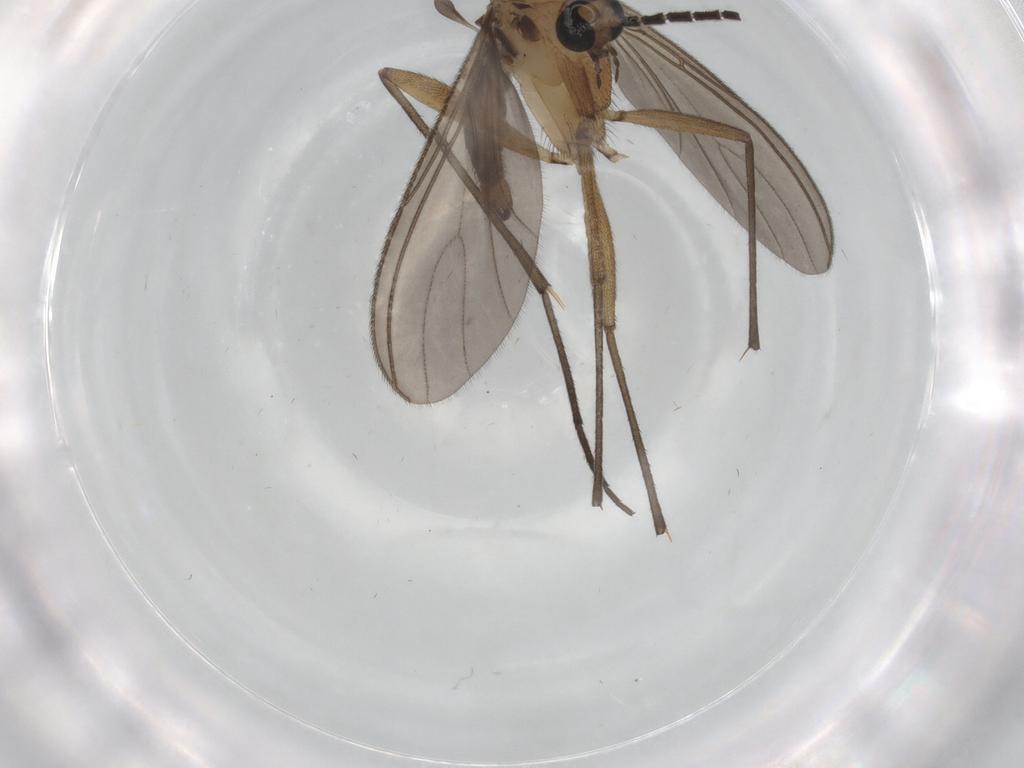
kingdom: Animalia
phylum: Arthropoda
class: Insecta
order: Diptera
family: Sciaridae
